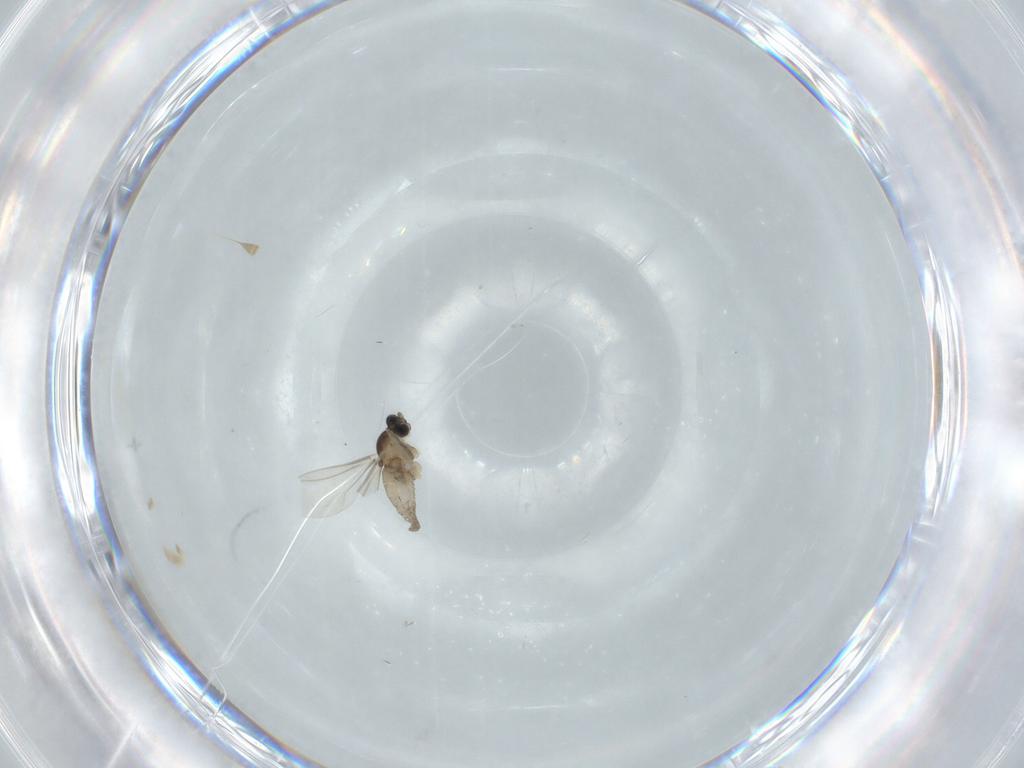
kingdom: Animalia
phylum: Arthropoda
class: Insecta
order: Diptera
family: Cecidomyiidae
